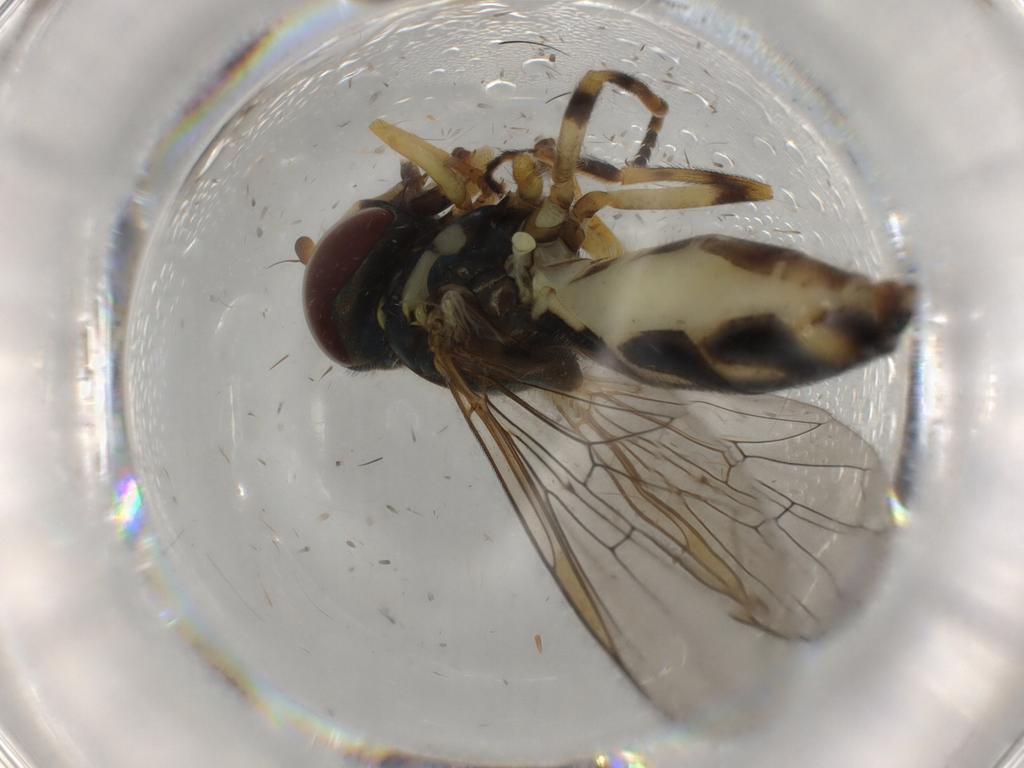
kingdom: Animalia
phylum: Arthropoda
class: Insecta
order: Diptera
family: Syrphidae
